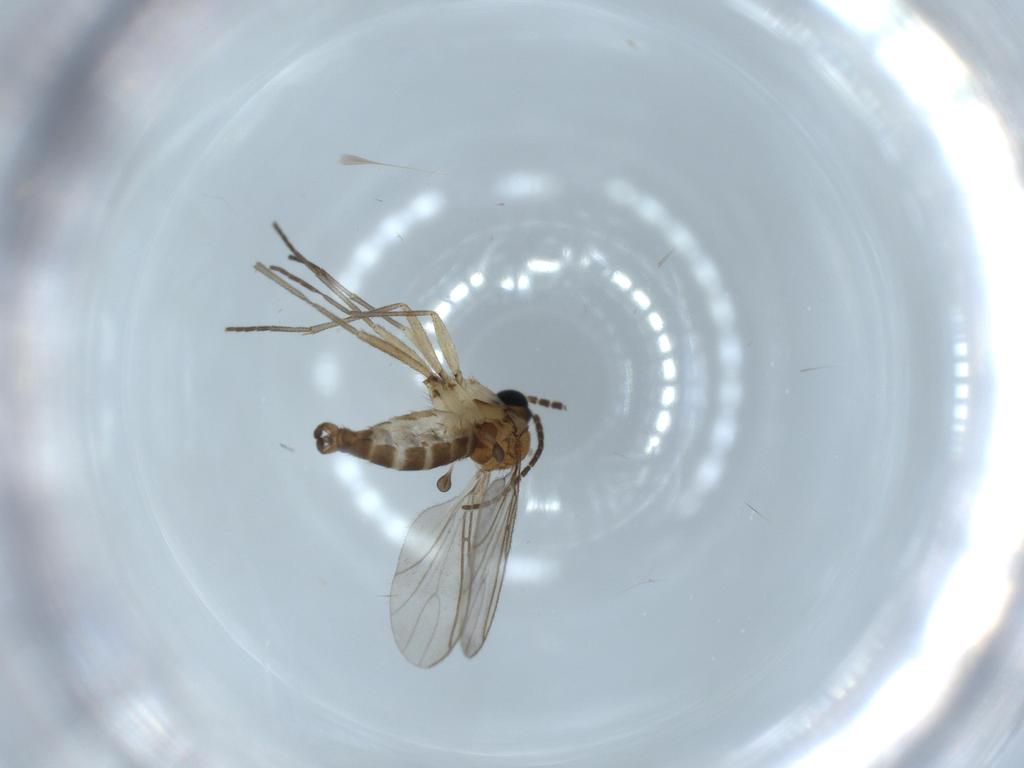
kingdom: Animalia
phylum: Arthropoda
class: Insecta
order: Diptera
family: Sciaridae
